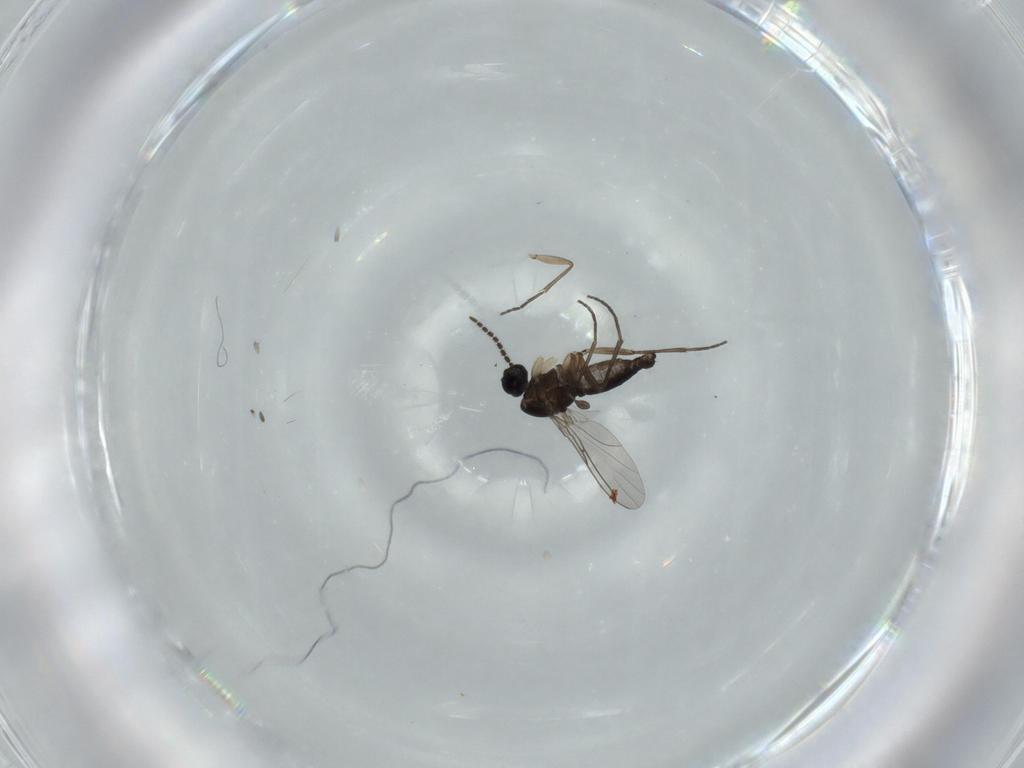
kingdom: Animalia
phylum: Arthropoda
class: Insecta
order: Diptera
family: Sciaridae
